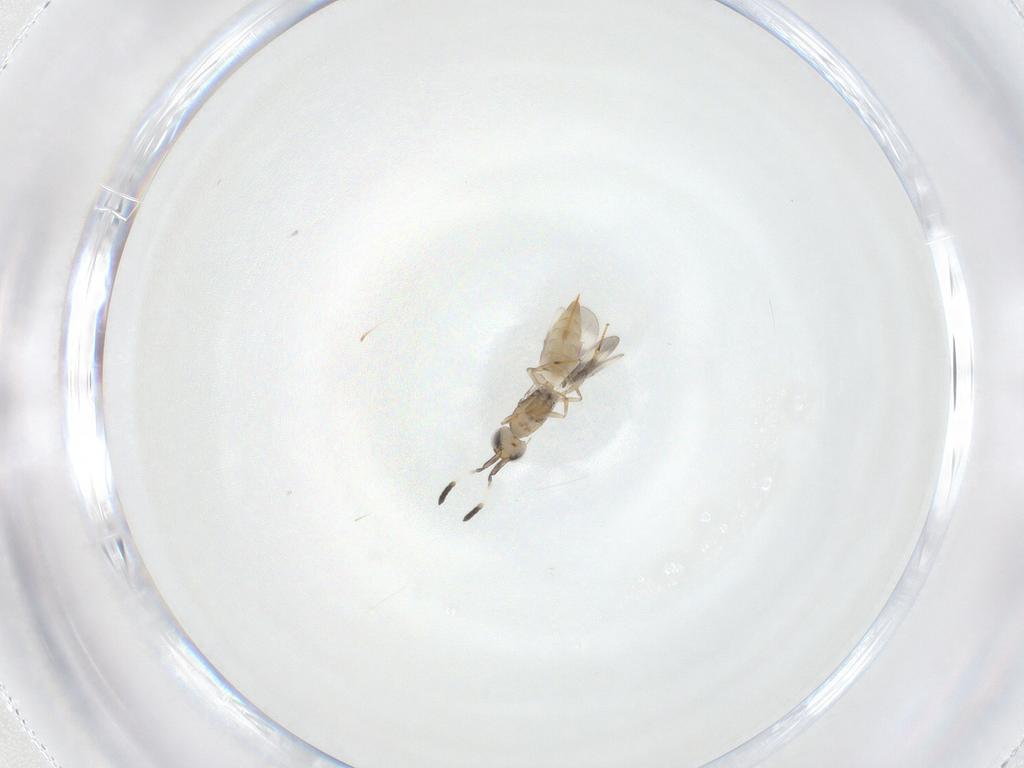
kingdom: Animalia
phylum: Arthropoda
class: Insecta
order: Hymenoptera
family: Megaspilidae
